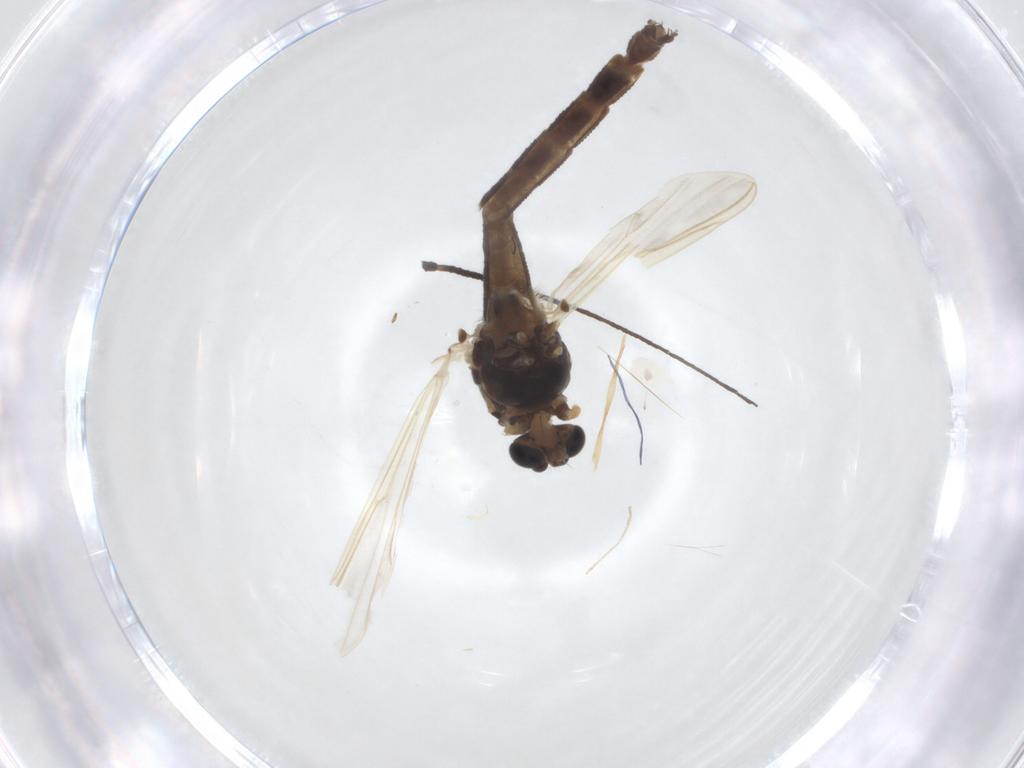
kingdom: Animalia
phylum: Arthropoda
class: Insecta
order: Diptera
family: Chironomidae
